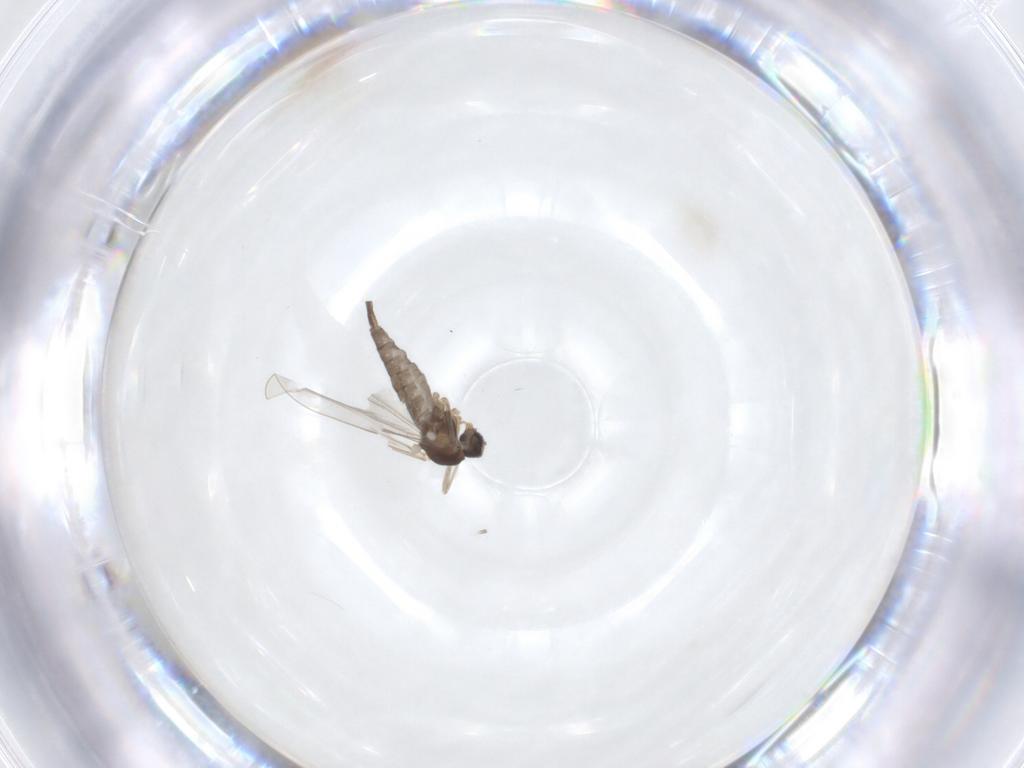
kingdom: Animalia
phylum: Arthropoda
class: Insecta
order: Diptera
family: Cecidomyiidae
